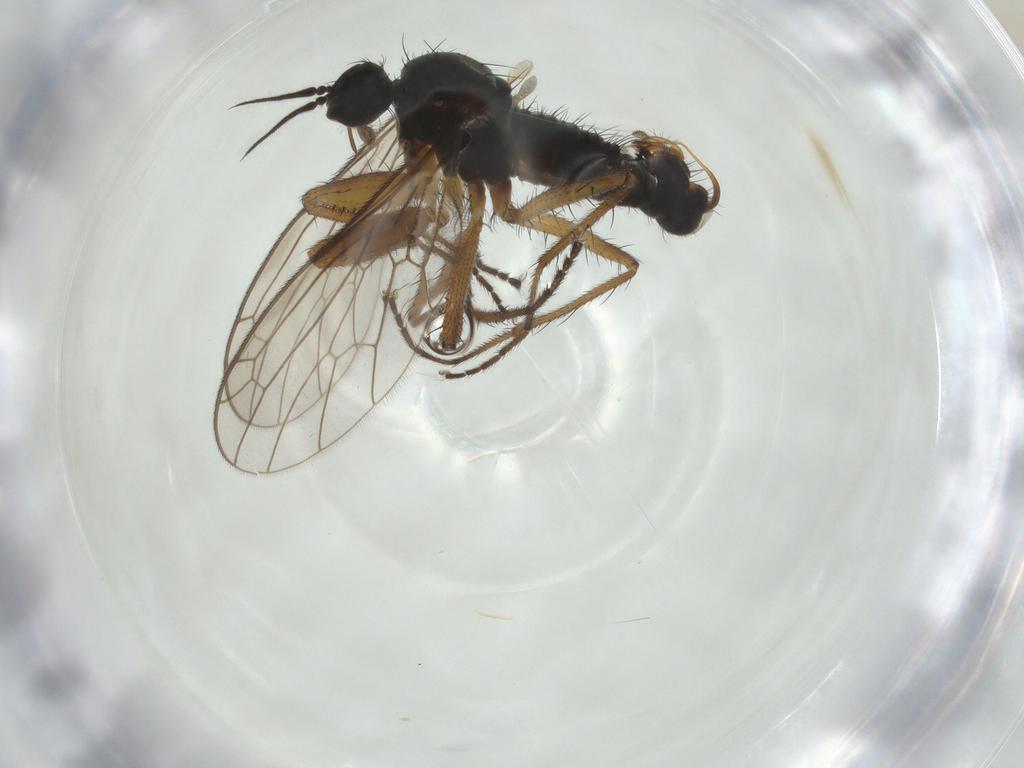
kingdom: Animalia
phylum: Arthropoda
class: Insecta
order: Diptera
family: Empididae
